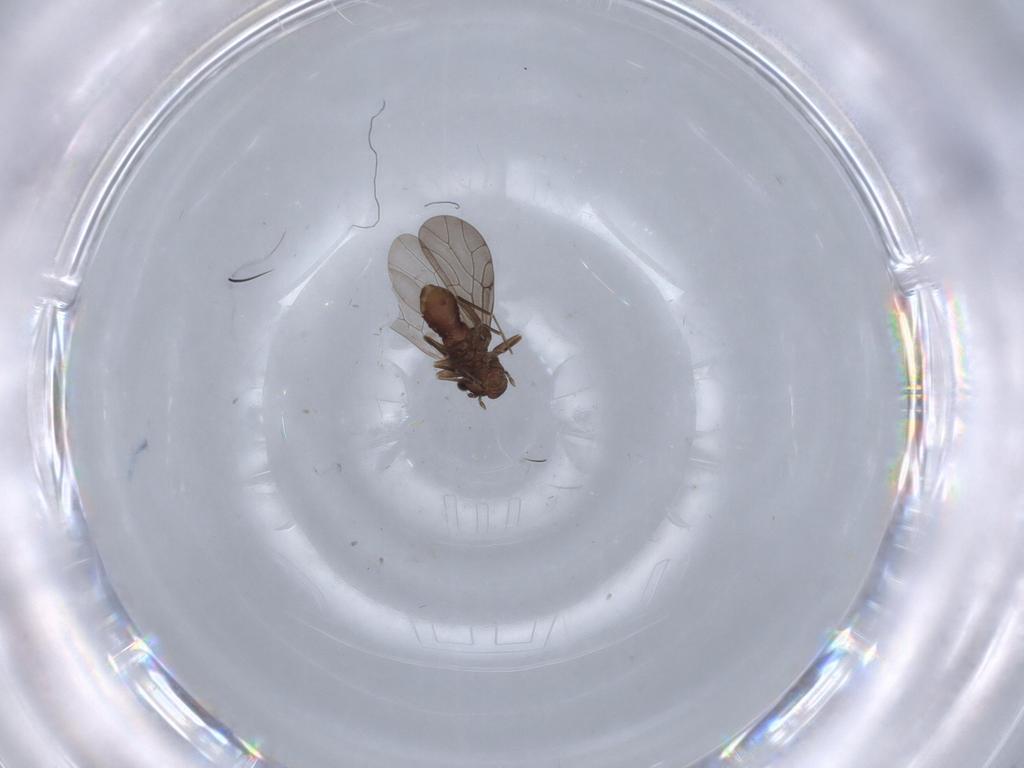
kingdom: Animalia
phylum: Arthropoda
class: Insecta
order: Psocodea
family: Lepidopsocidae
